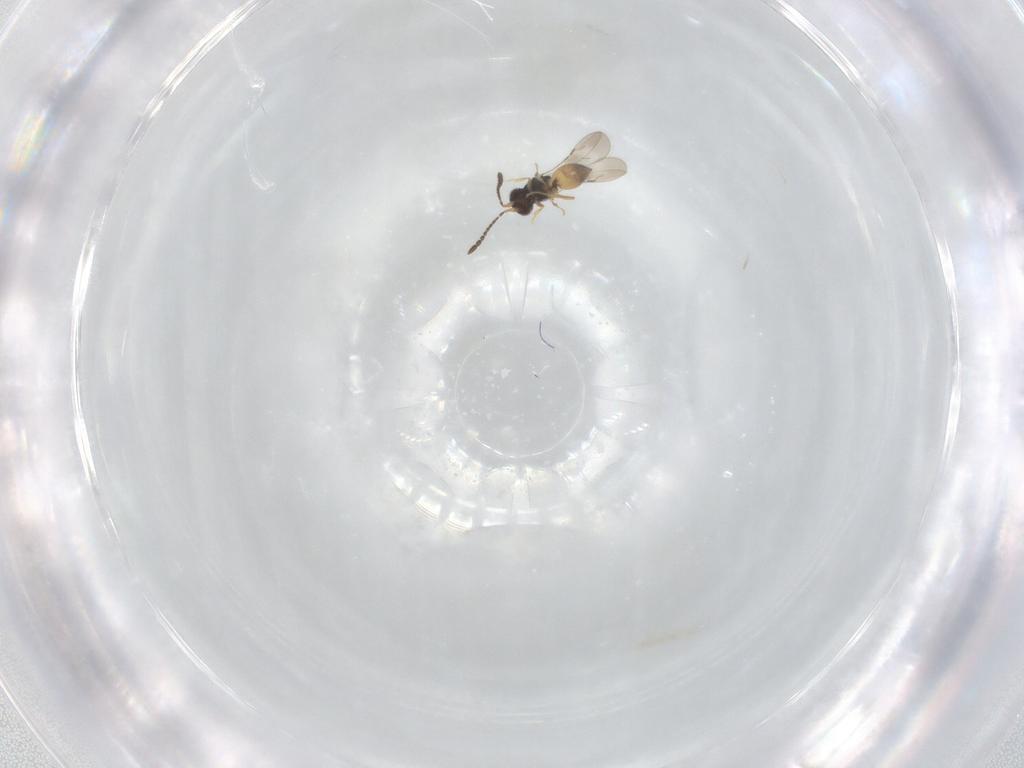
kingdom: Animalia
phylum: Arthropoda
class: Insecta
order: Hymenoptera
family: Ceraphronidae
